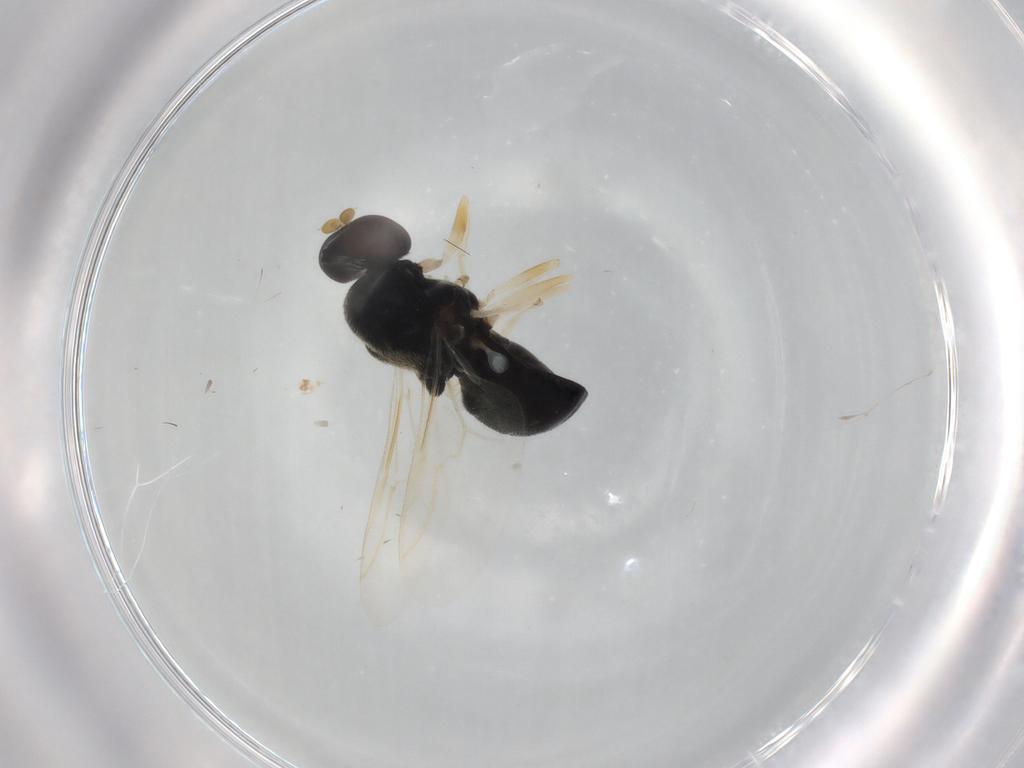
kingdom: Animalia
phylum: Arthropoda
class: Insecta
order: Diptera
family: Stratiomyidae
